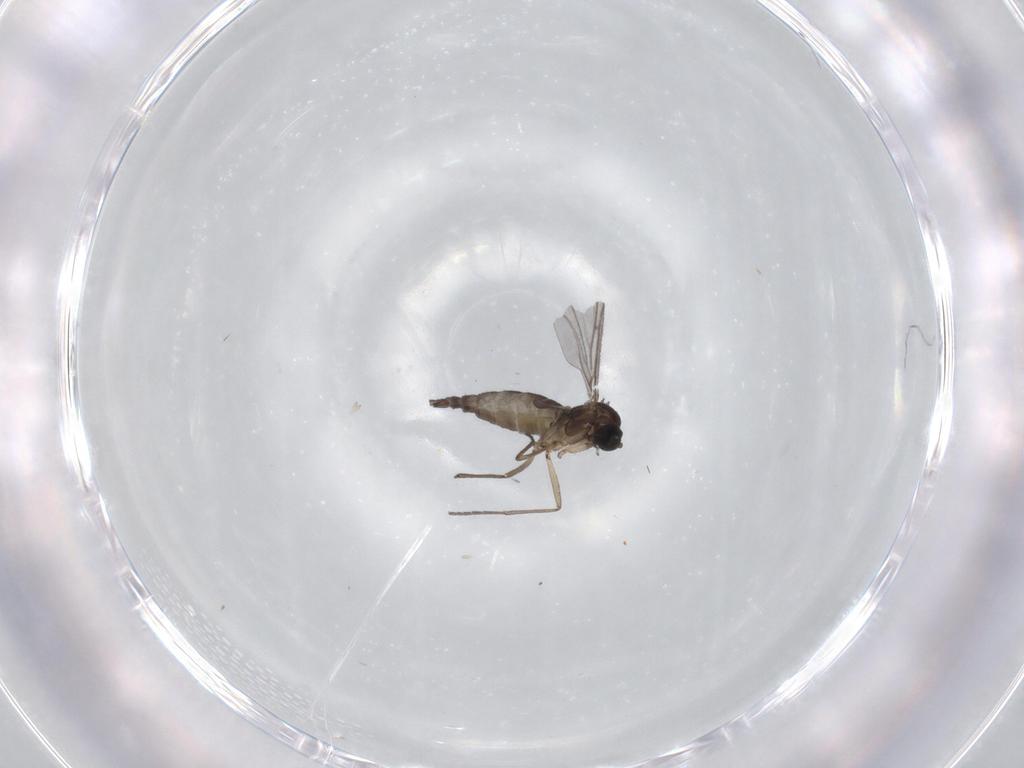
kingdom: Animalia
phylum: Arthropoda
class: Insecta
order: Diptera
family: Sciaridae
